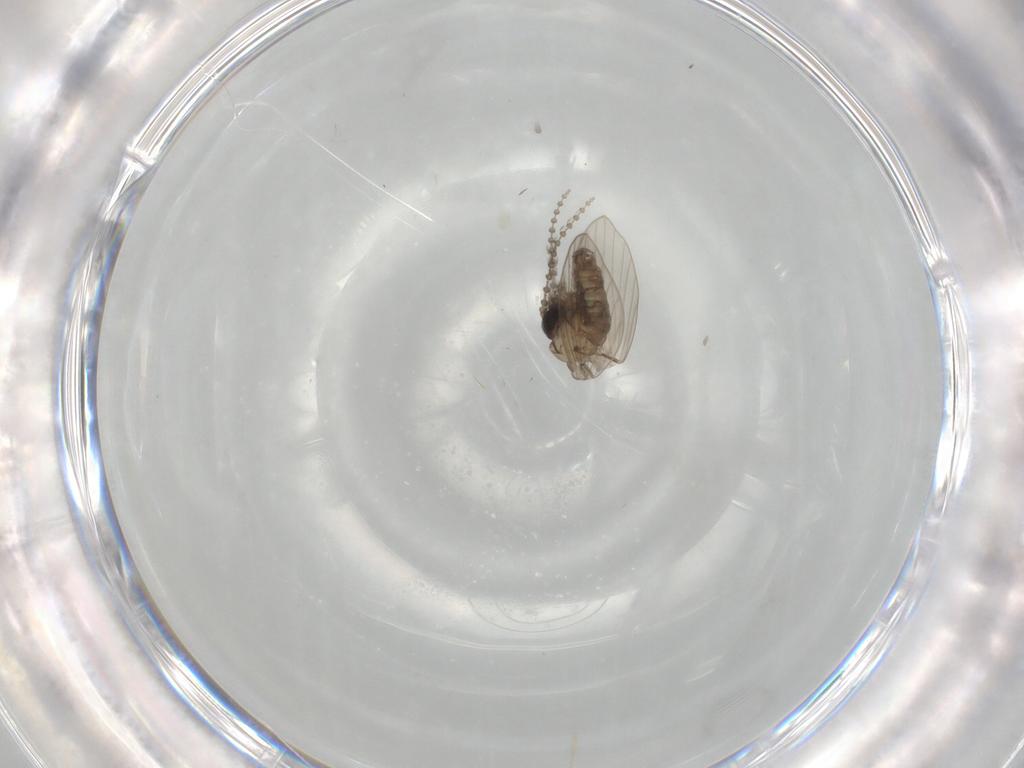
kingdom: Animalia
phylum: Arthropoda
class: Insecta
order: Diptera
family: Psychodidae
